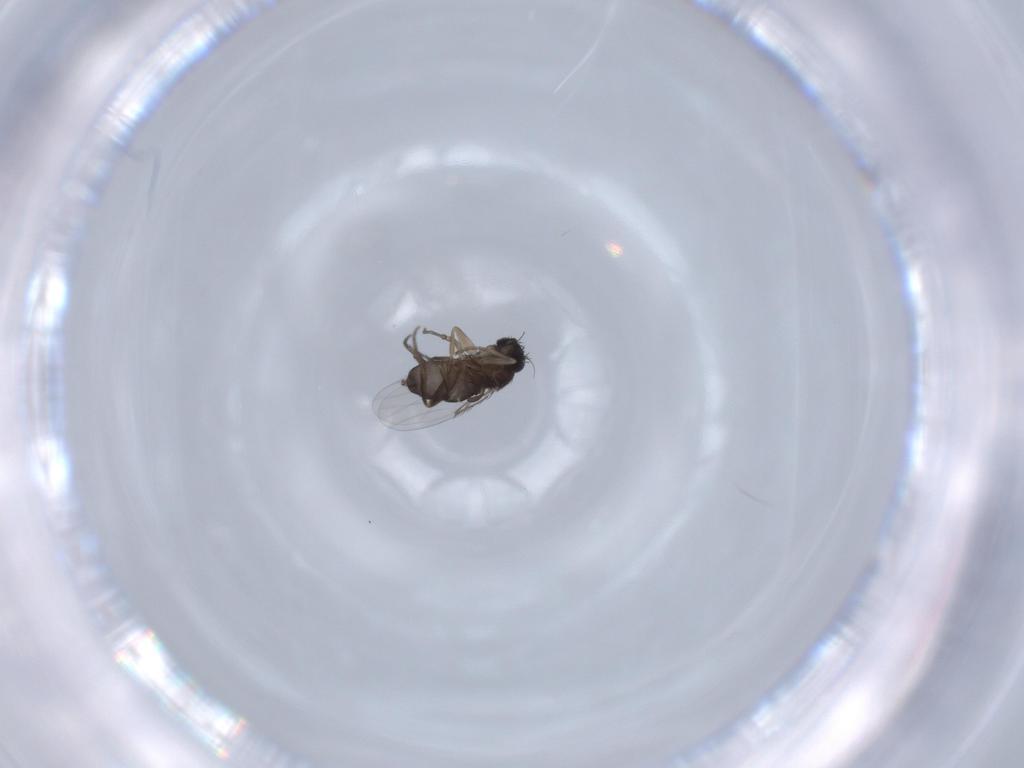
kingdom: Animalia
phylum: Arthropoda
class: Insecta
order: Diptera
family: Phoridae
